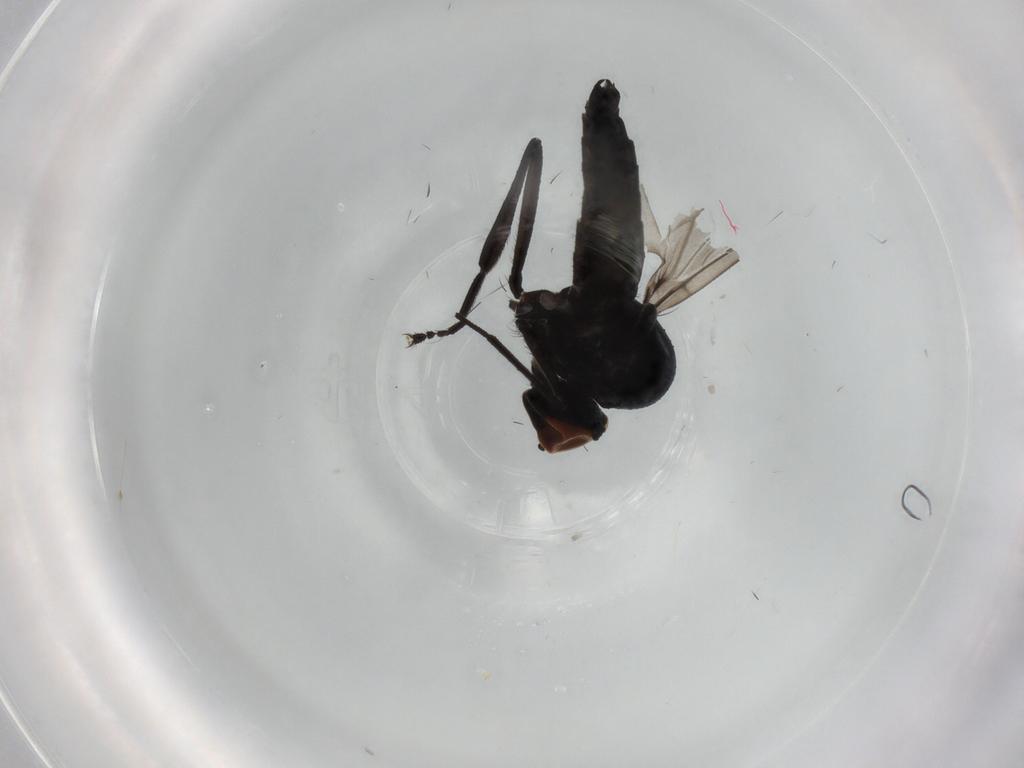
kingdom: Animalia
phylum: Arthropoda
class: Insecta
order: Diptera
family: Hybotidae
